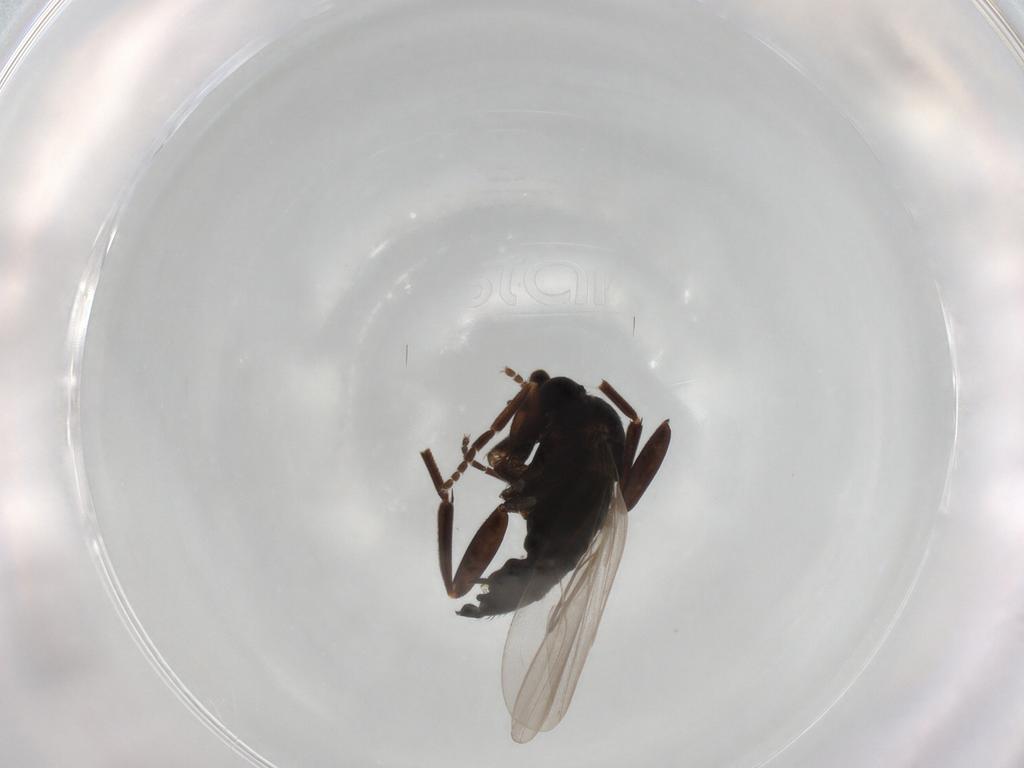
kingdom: Animalia
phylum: Arthropoda
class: Insecta
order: Diptera
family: Phoridae
